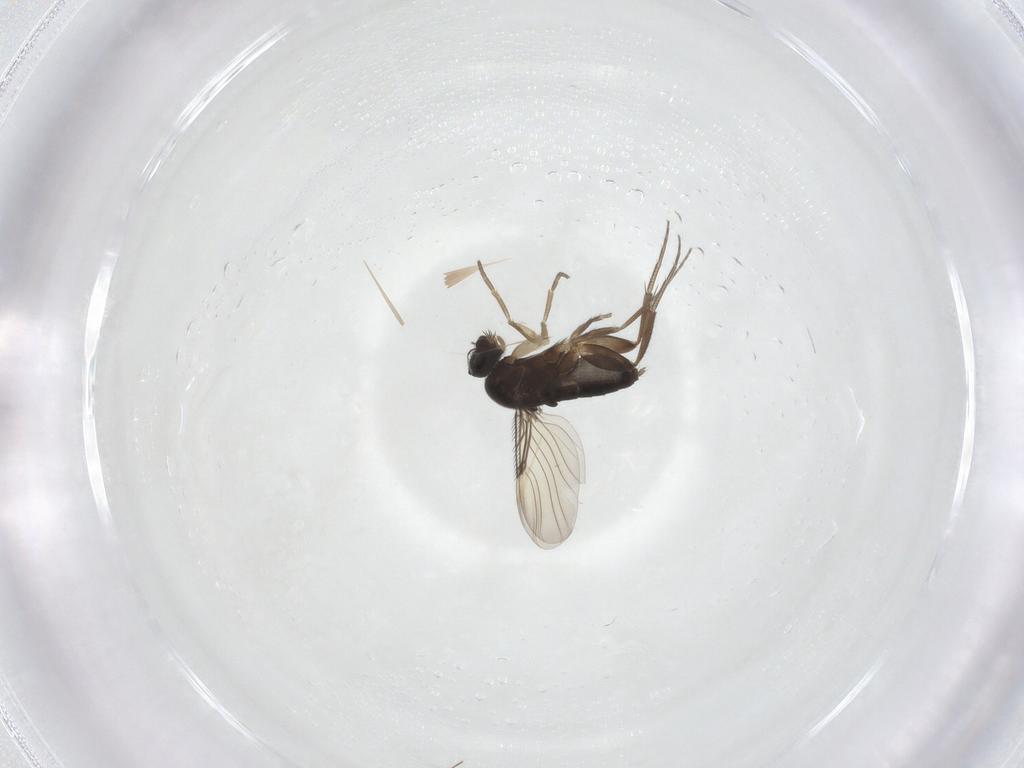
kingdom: Animalia
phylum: Arthropoda
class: Insecta
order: Diptera
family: Phoridae
